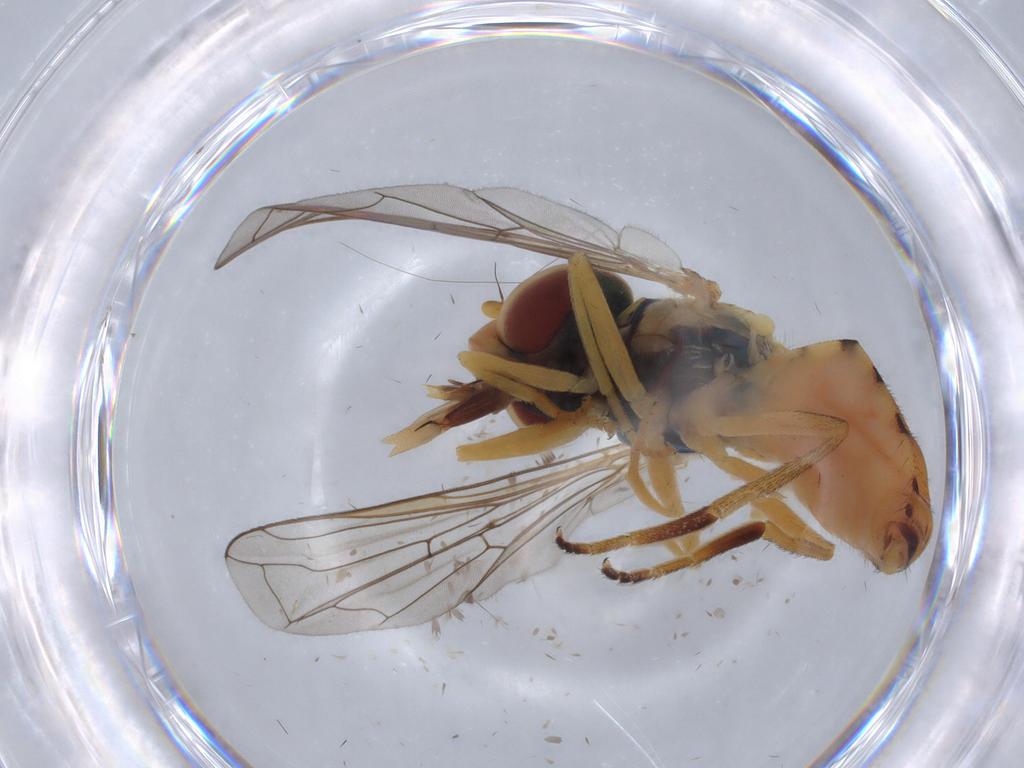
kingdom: Animalia
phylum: Arthropoda
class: Insecta
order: Diptera
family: Syrphidae
